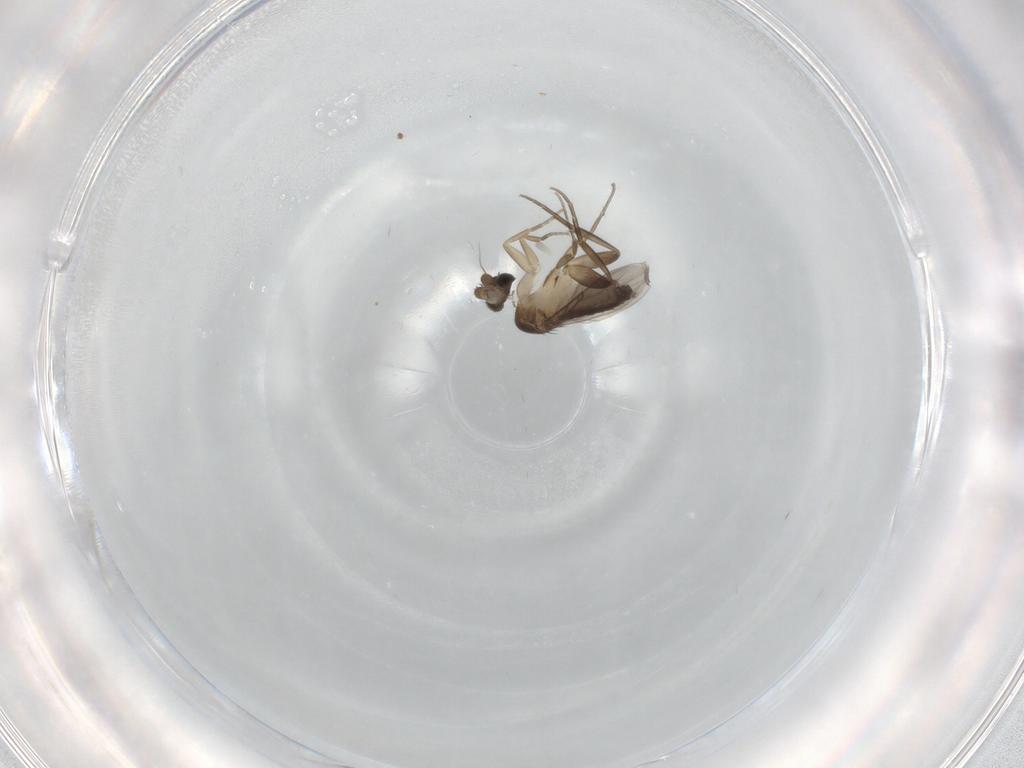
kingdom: Animalia
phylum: Arthropoda
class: Insecta
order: Diptera
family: Phoridae
